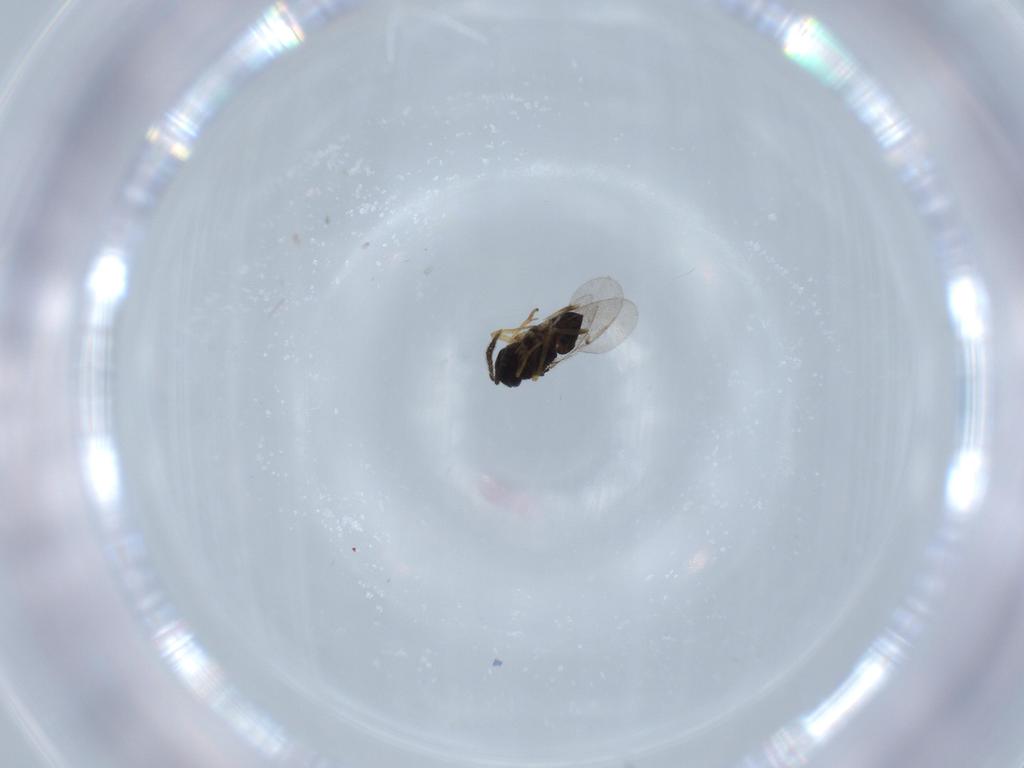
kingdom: Animalia
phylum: Arthropoda
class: Insecta
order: Hymenoptera
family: Encyrtidae
